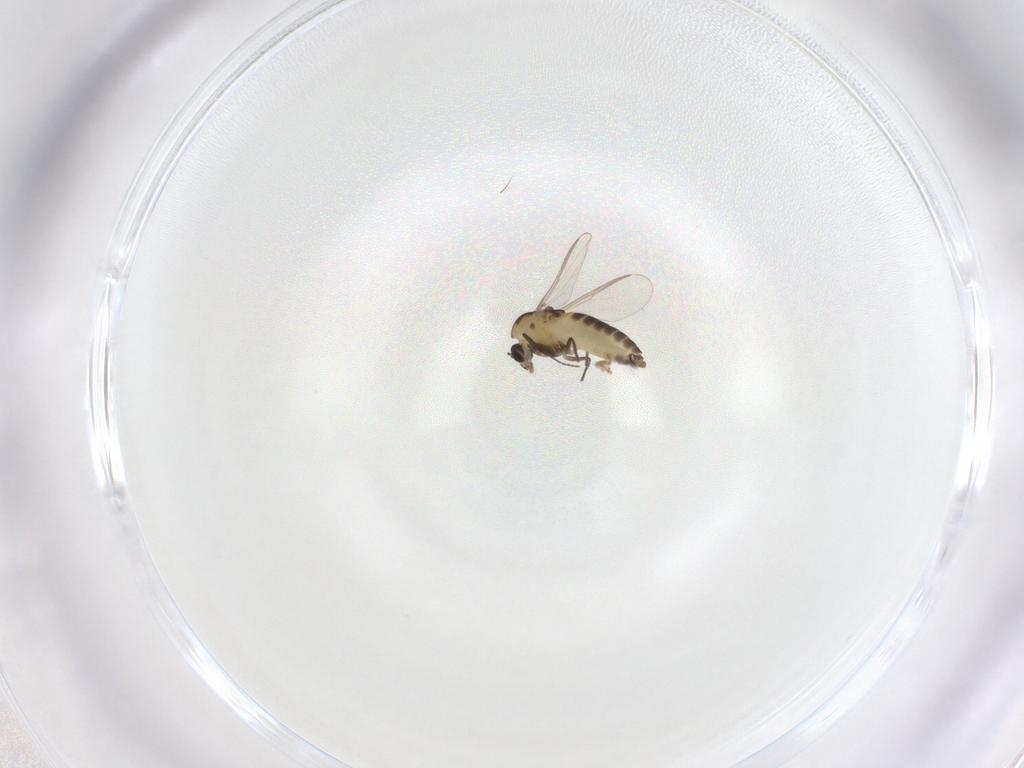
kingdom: Animalia
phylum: Arthropoda
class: Insecta
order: Diptera
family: Chironomidae
